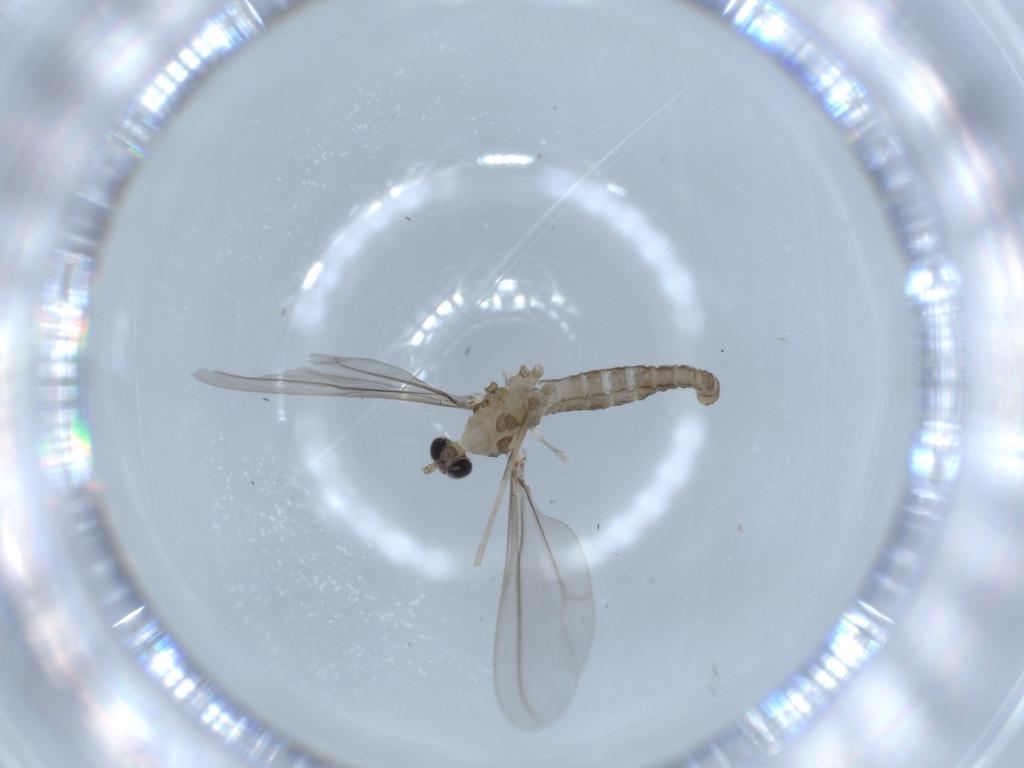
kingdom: Animalia
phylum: Arthropoda
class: Insecta
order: Diptera
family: Cecidomyiidae
